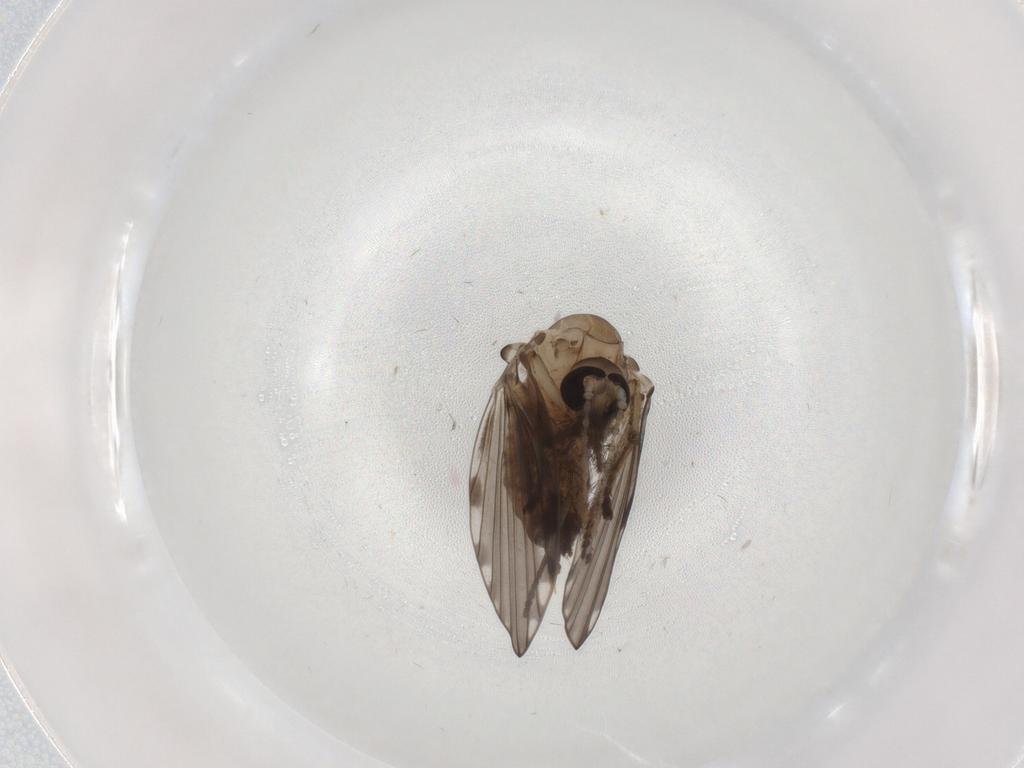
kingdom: Animalia
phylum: Arthropoda
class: Insecta
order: Diptera
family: Psychodidae
